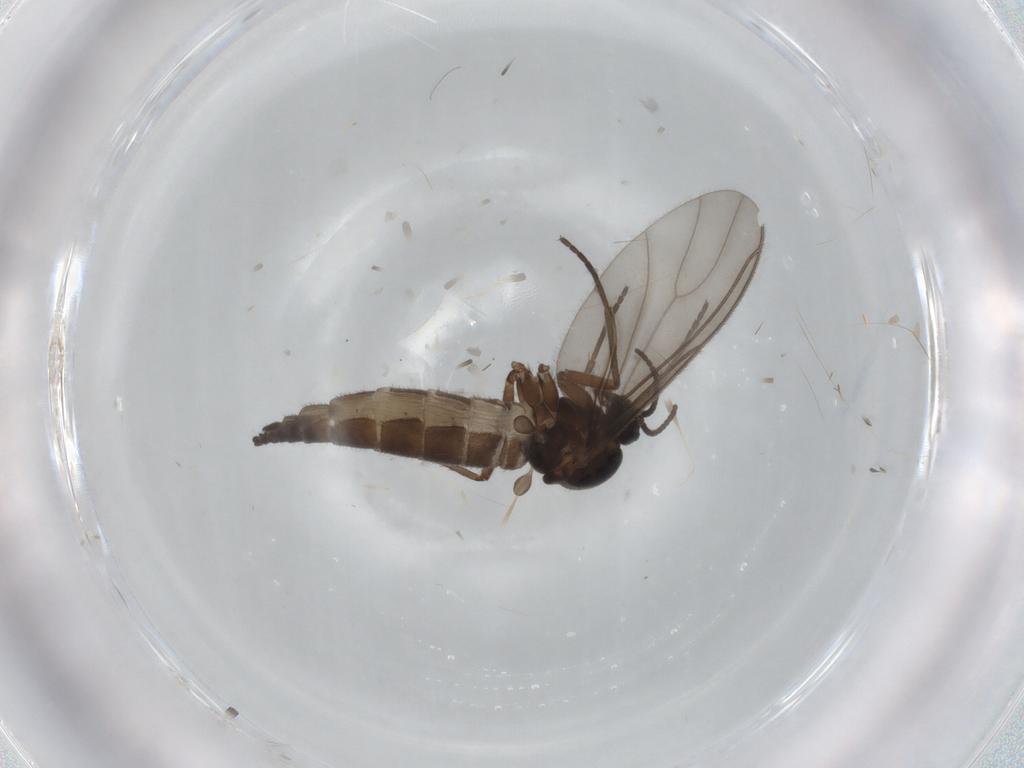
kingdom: Animalia
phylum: Arthropoda
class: Insecta
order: Diptera
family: Sciaridae
